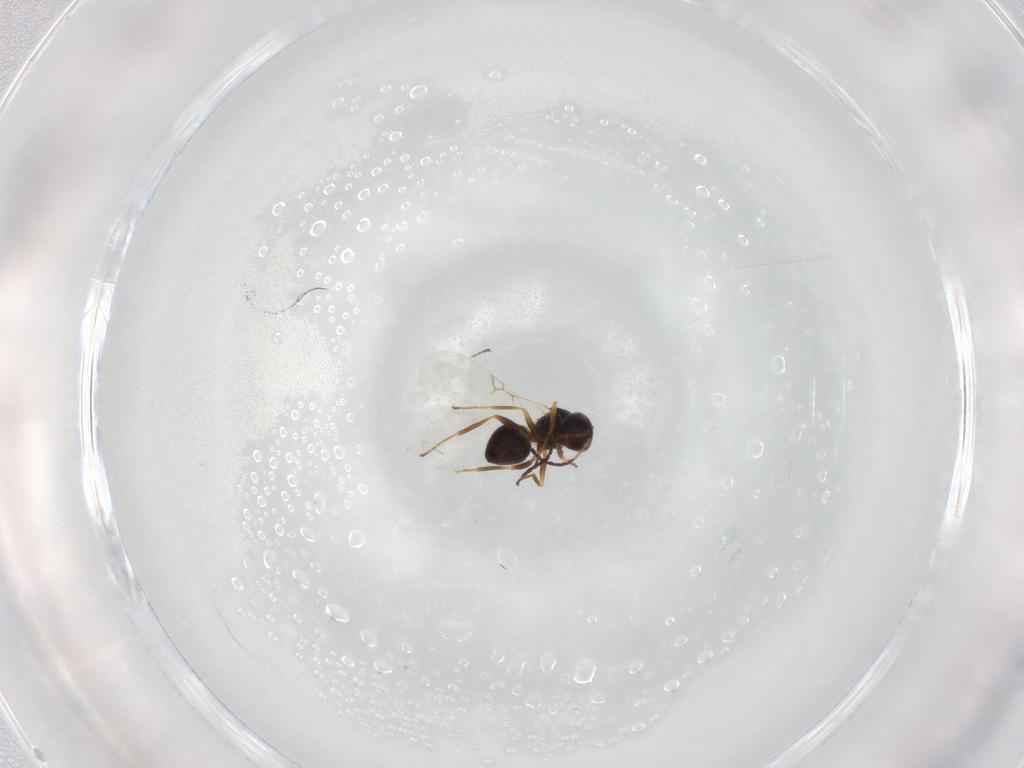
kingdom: Animalia
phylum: Arthropoda
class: Insecta
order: Hymenoptera
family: Figitidae
